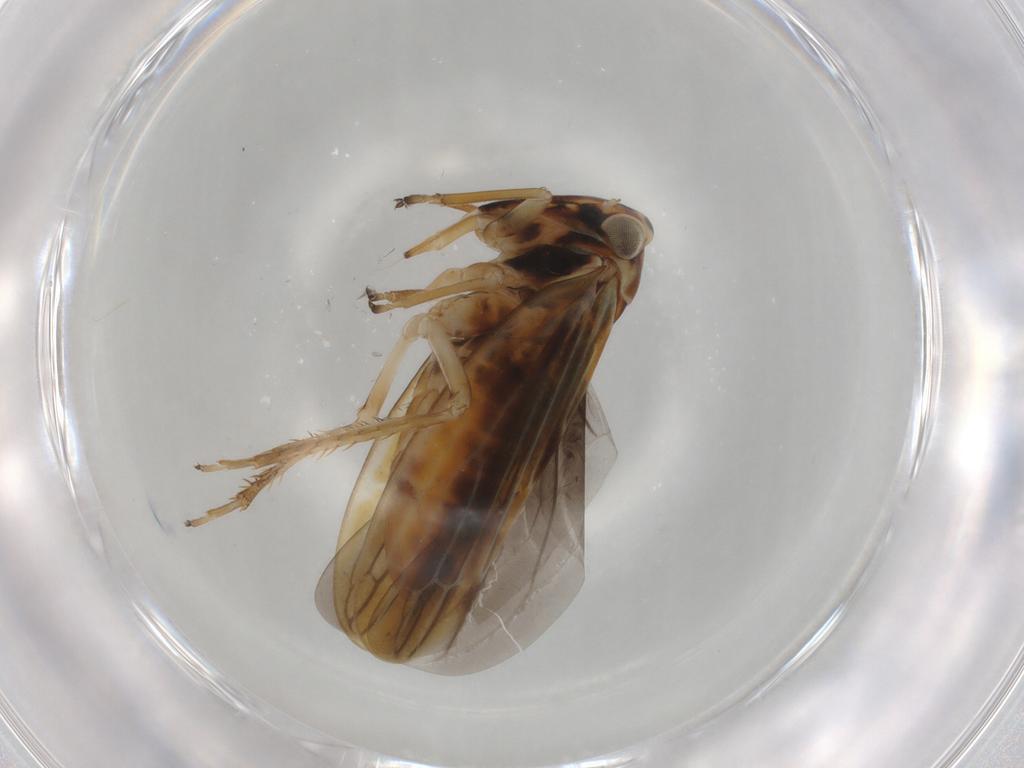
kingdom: Animalia
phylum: Arthropoda
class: Insecta
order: Hemiptera
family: Cicadellidae
